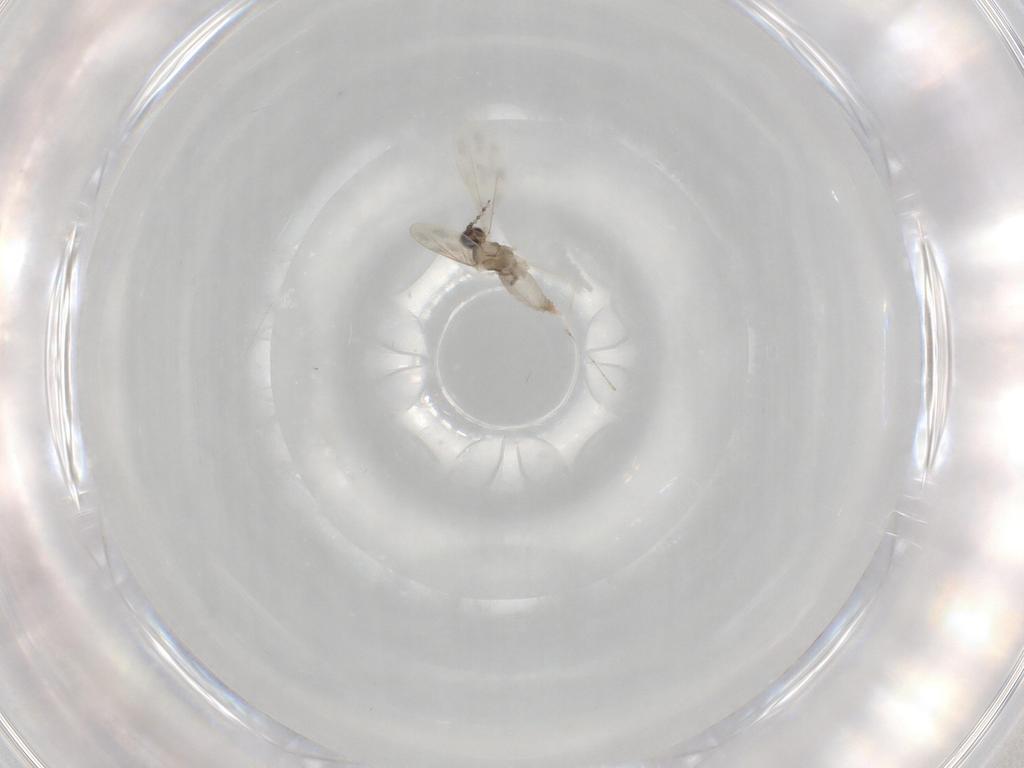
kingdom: Animalia
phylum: Arthropoda
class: Insecta
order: Diptera
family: Cecidomyiidae
